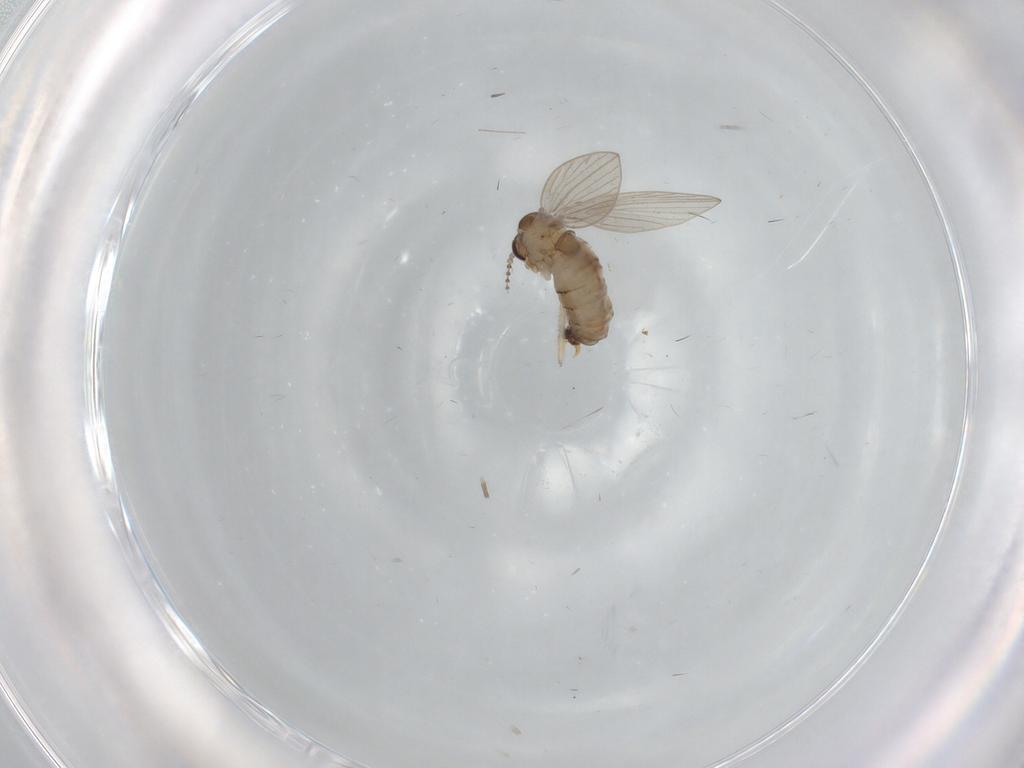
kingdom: Animalia
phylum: Arthropoda
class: Insecta
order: Diptera
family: Psychodidae
